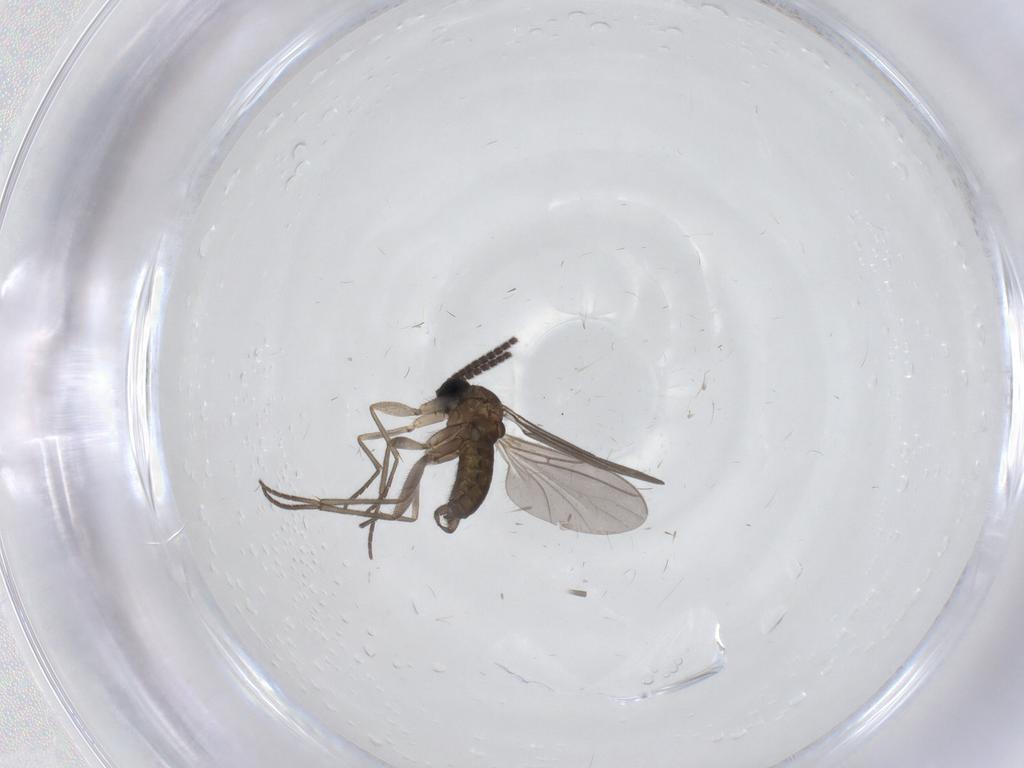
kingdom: Animalia
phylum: Arthropoda
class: Insecta
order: Diptera
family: Sciaridae
